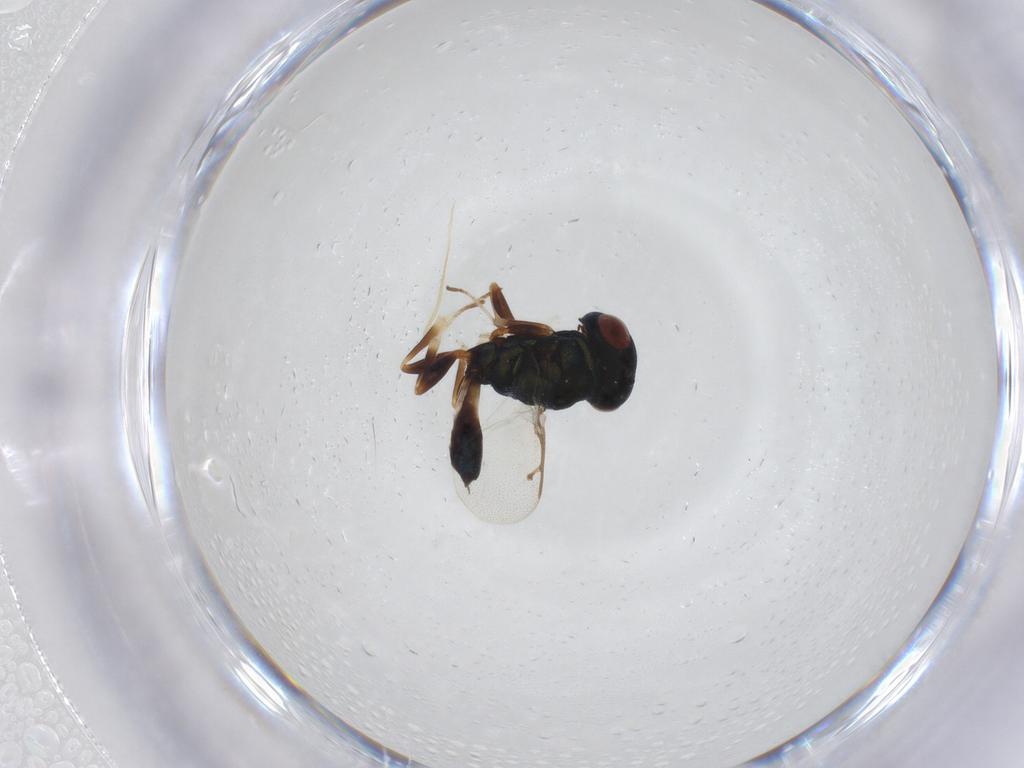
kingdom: Animalia
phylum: Arthropoda
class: Insecta
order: Hymenoptera
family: Pteromalidae
